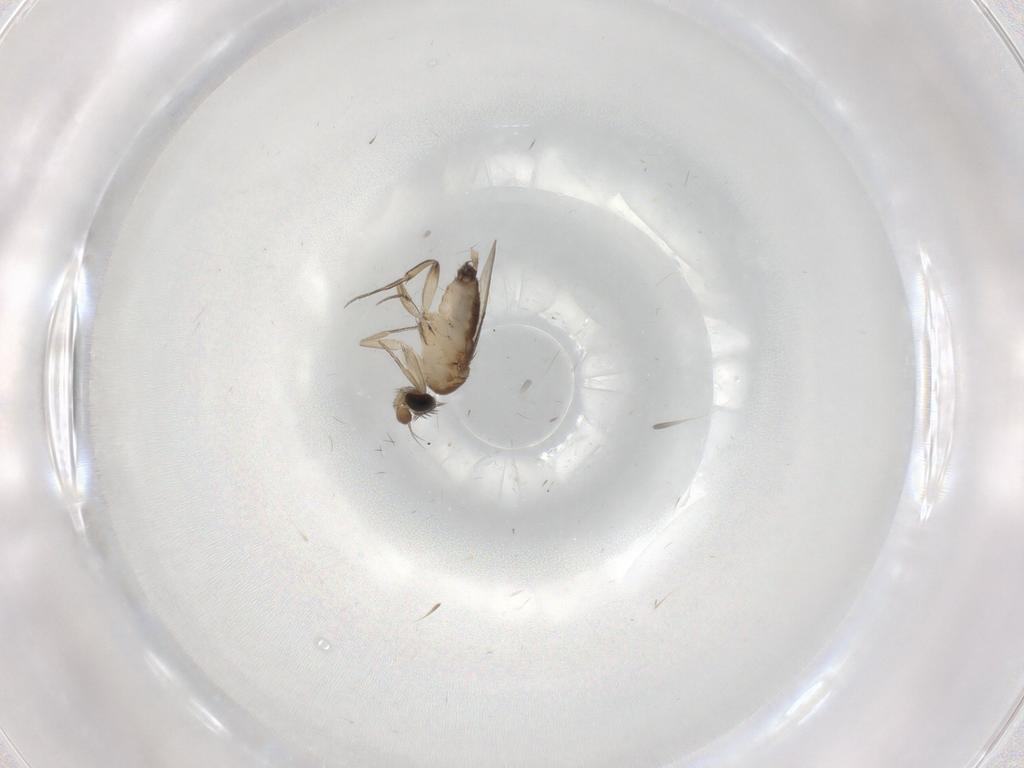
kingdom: Animalia
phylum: Arthropoda
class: Insecta
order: Diptera
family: Phoridae
